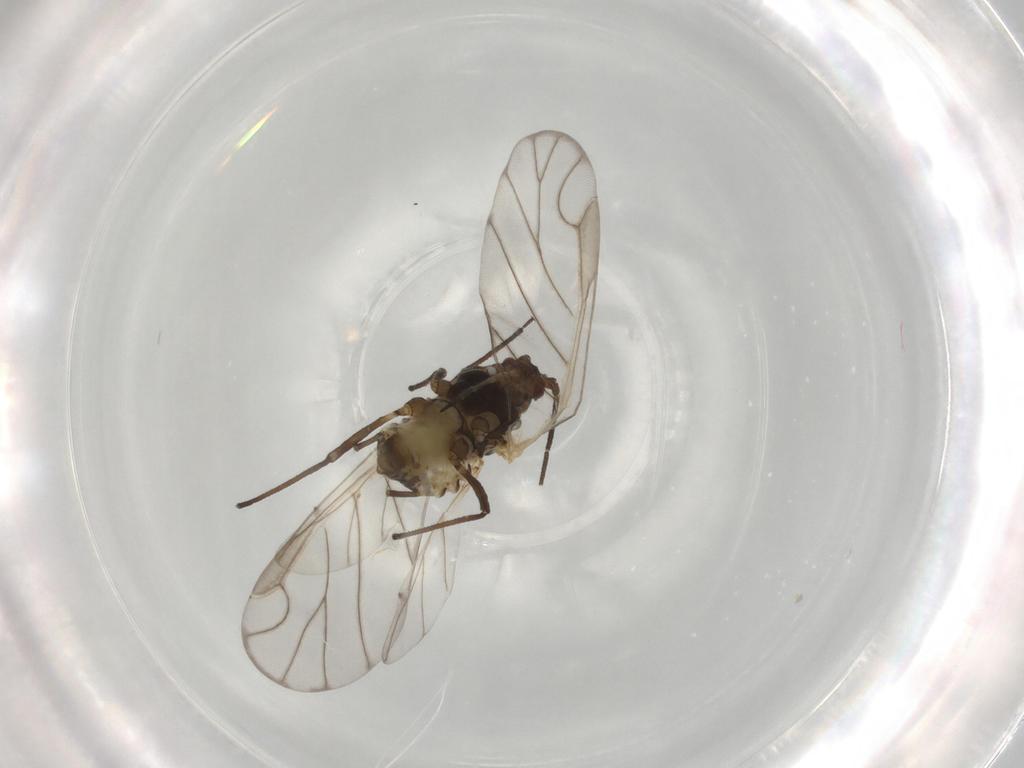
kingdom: Animalia
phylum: Arthropoda
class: Insecta
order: Hemiptera
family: Aphididae
